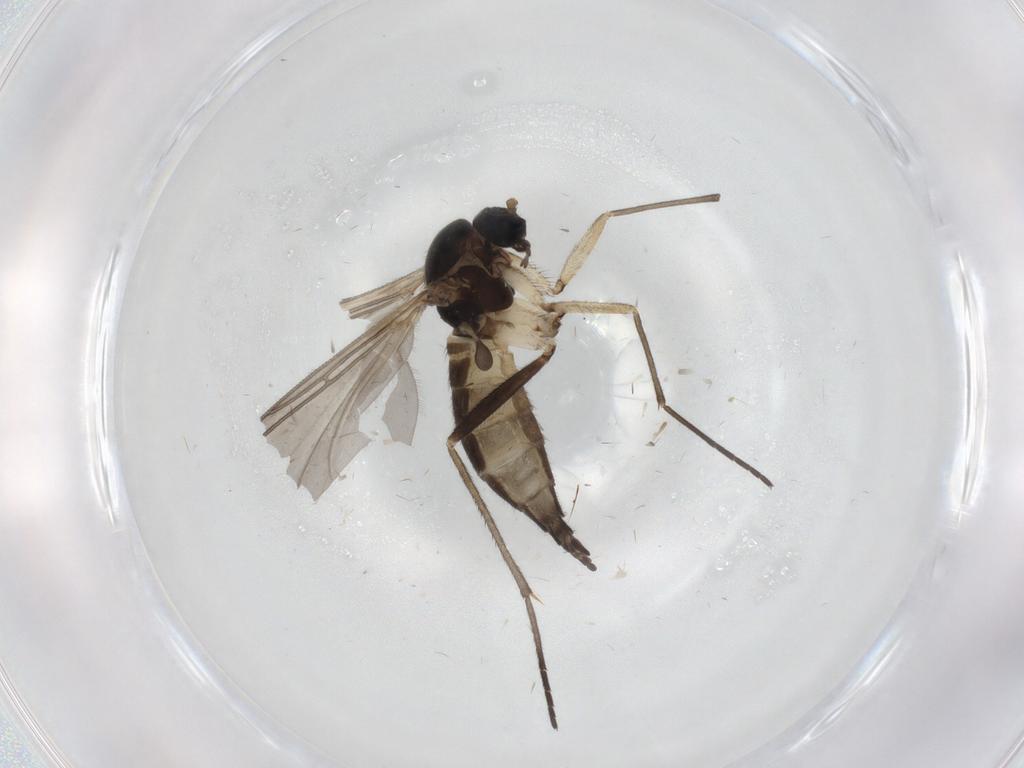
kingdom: Animalia
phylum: Arthropoda
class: Insecta
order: Diptera
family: Sciaridae
